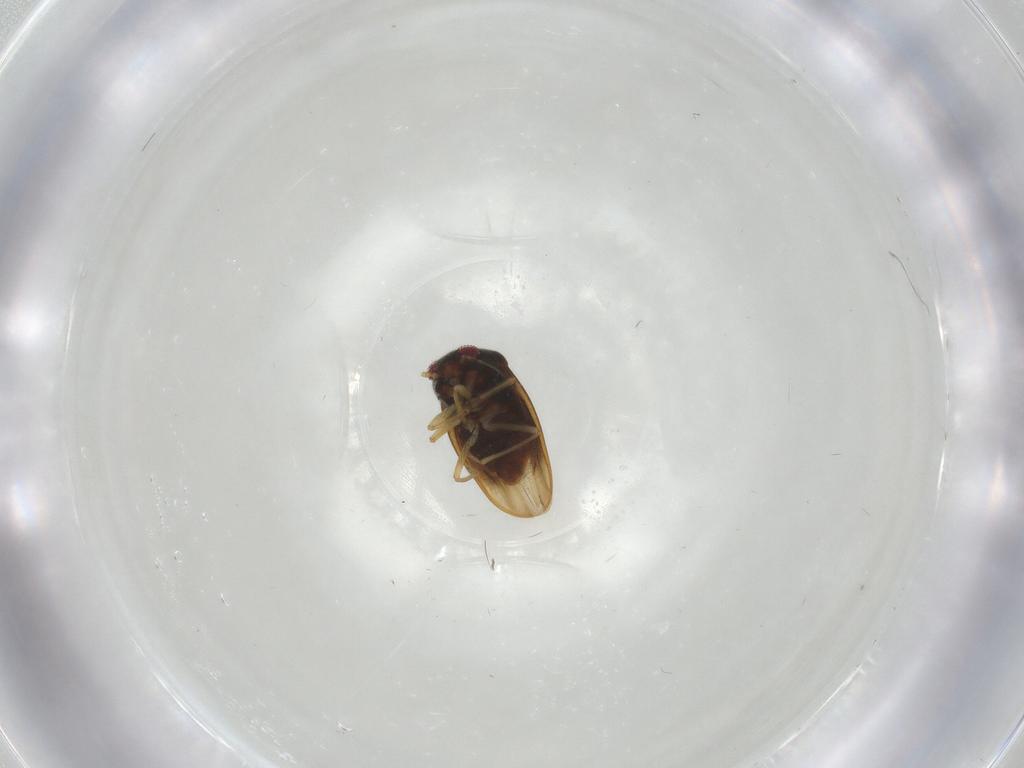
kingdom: Animalia
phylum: Arthropoda
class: Insecta
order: Hemiptera
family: Schizopteridae
